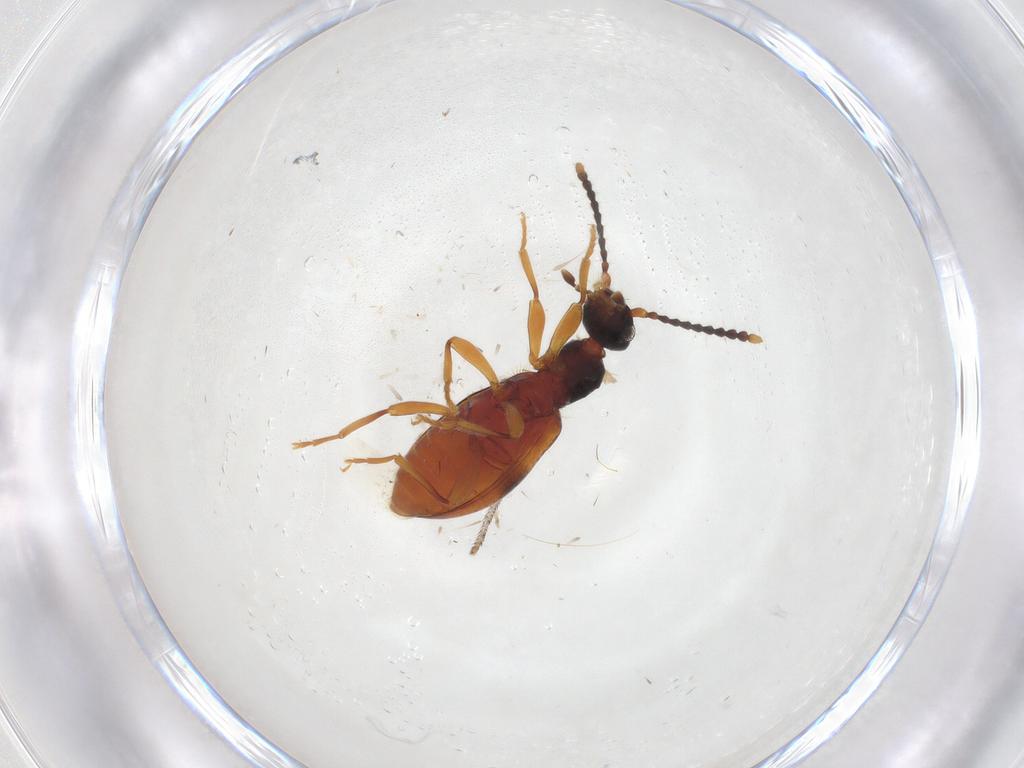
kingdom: Animalia
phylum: Arthropoda
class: Insecta
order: Coleoptera
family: Anthicidae
